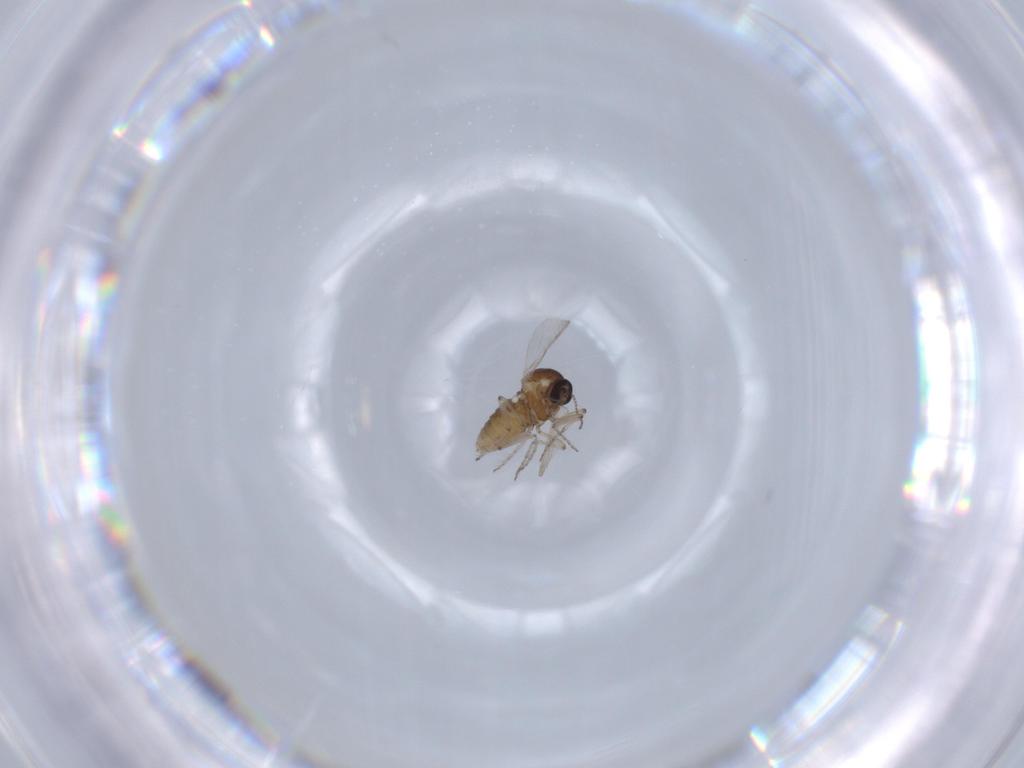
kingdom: Animalia
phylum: Arthropoda
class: Insecta
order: Diptera
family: Ceratopogonidae
